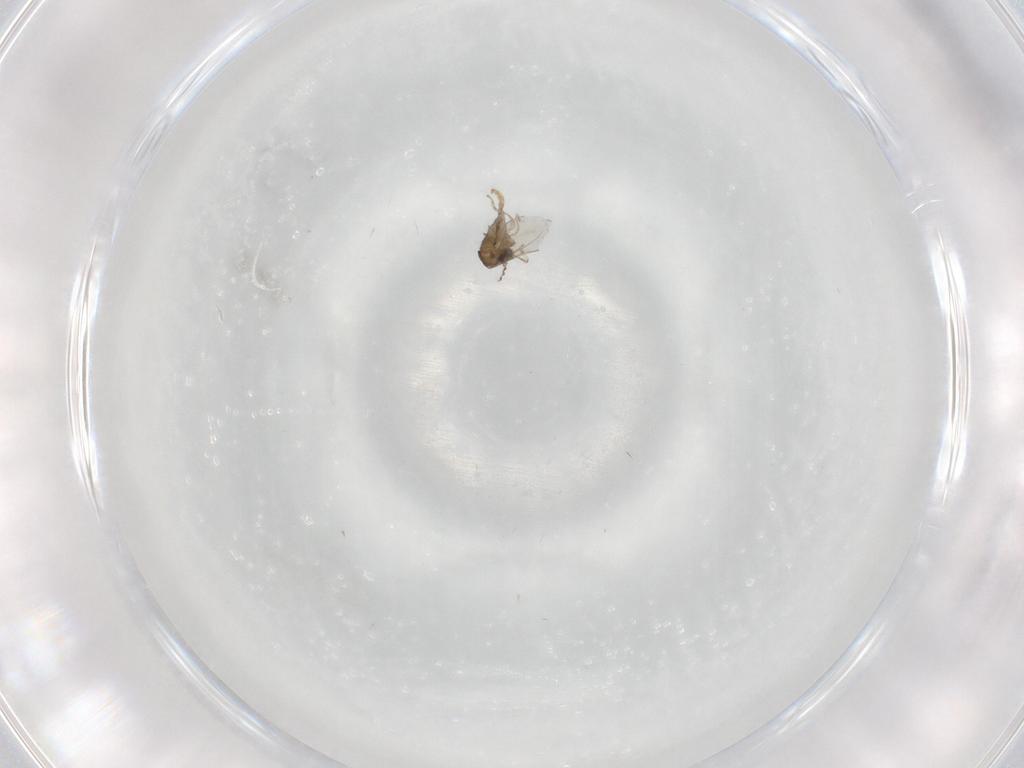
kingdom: Animalia
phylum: Arthropoda
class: Insecta
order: Diptera
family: Cecidomyiidae
